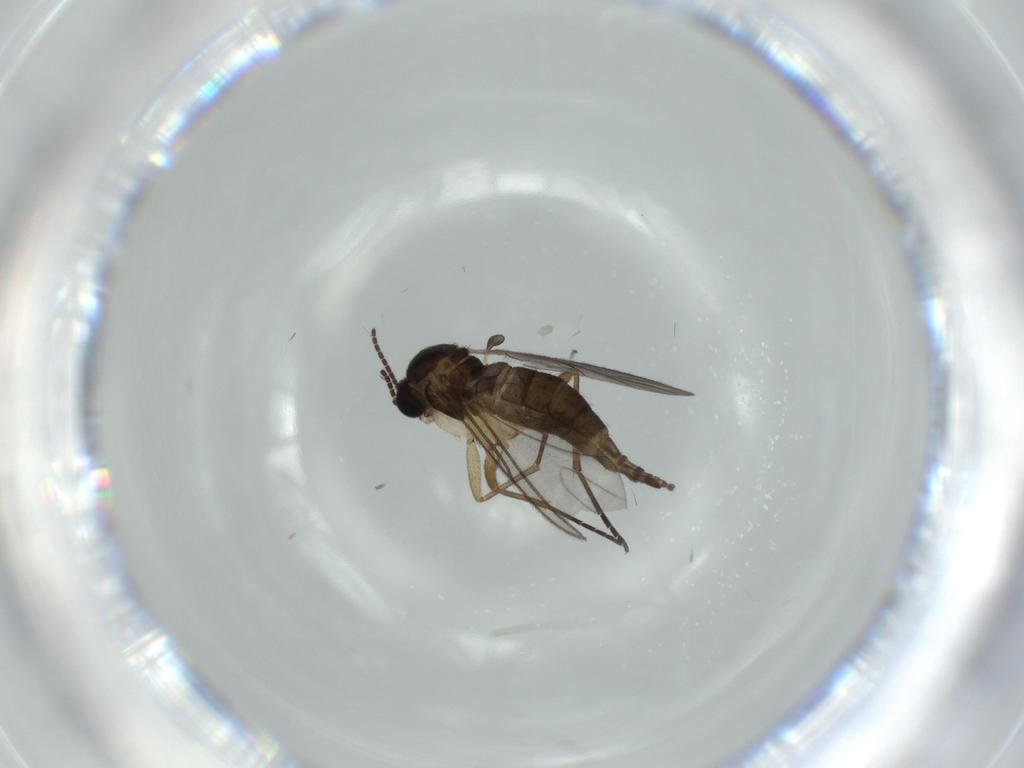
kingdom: Animalia
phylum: Arthropoda
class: Insecta
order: Diptera
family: Sciaridae
